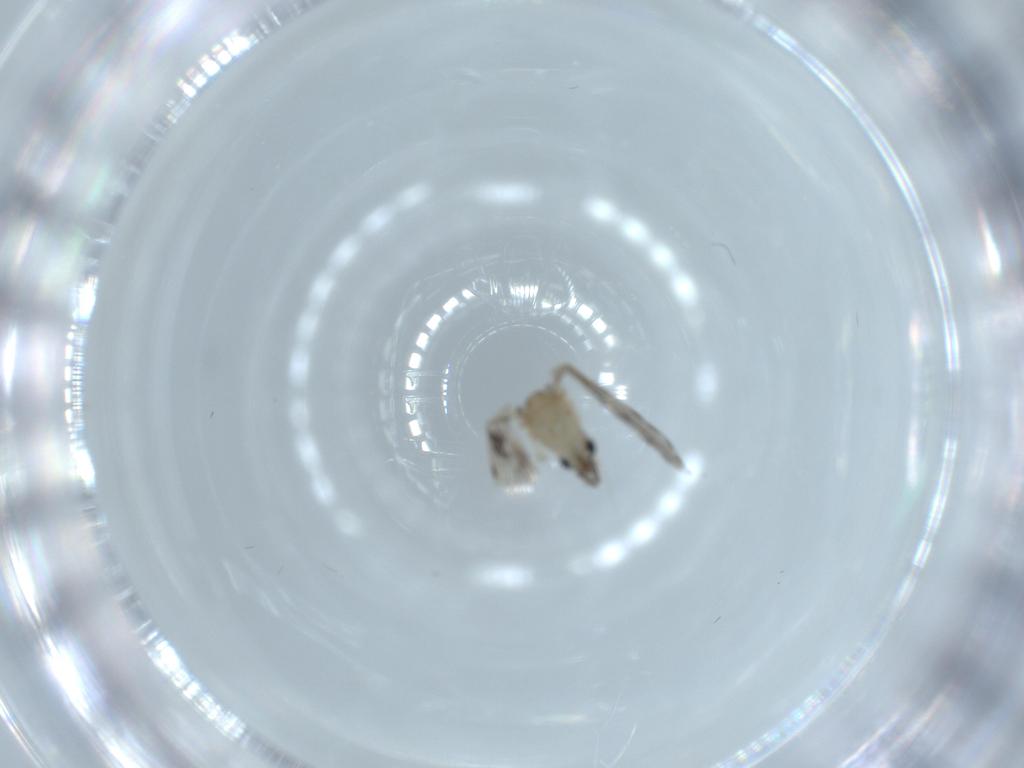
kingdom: Animalia
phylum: Arthropoda
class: Insecta
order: Diptera
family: Psychodidae
